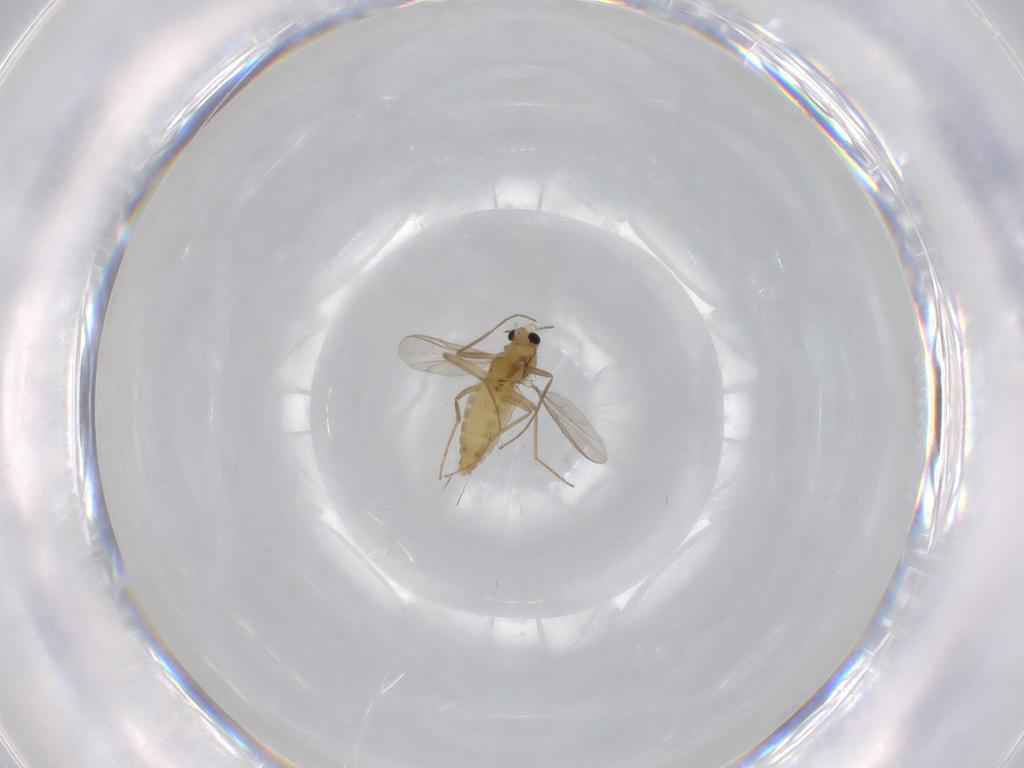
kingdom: Animalia
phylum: Arthropoda
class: Insecta
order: Diptera
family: Chironomidae
